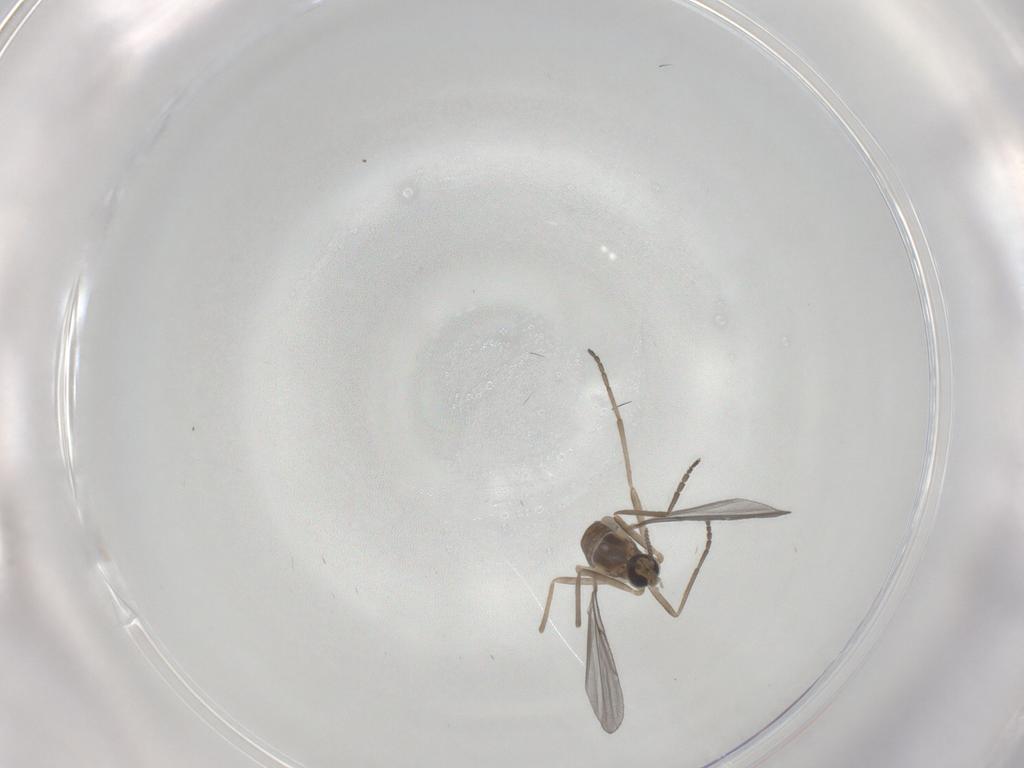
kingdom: Animalia
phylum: Arthropoda
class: Insecta
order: Diptera
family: Cecidomyiidae
